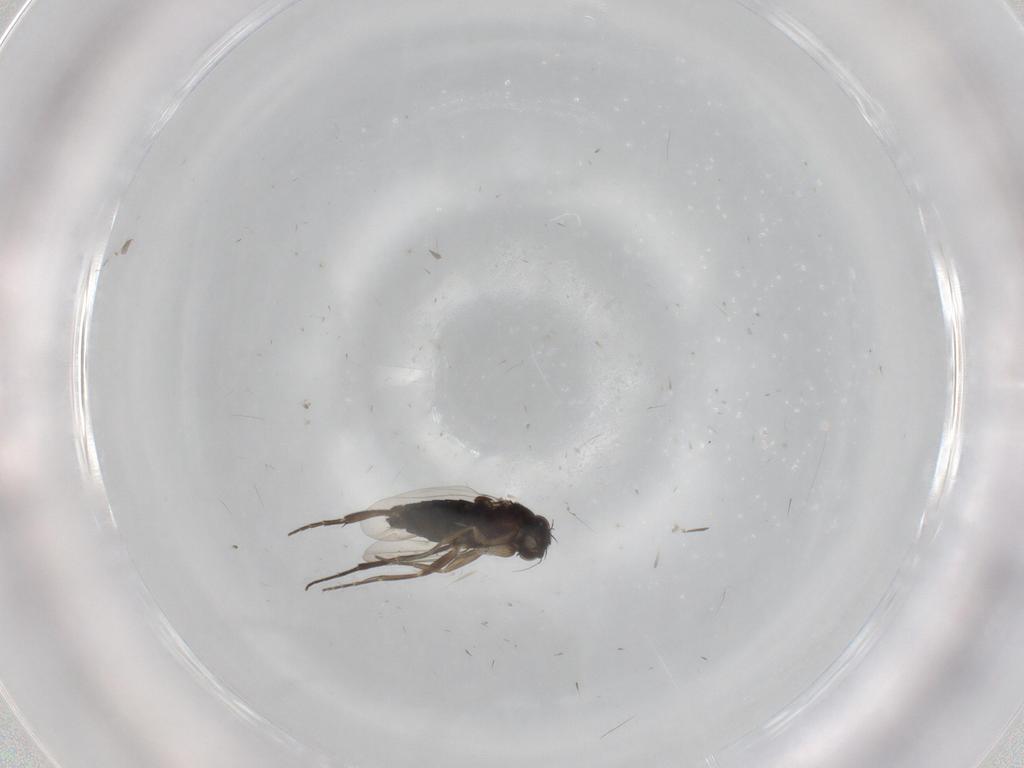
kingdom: Animalia
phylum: Arthropoda
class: Insecta
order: Diptera
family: Phoridae
